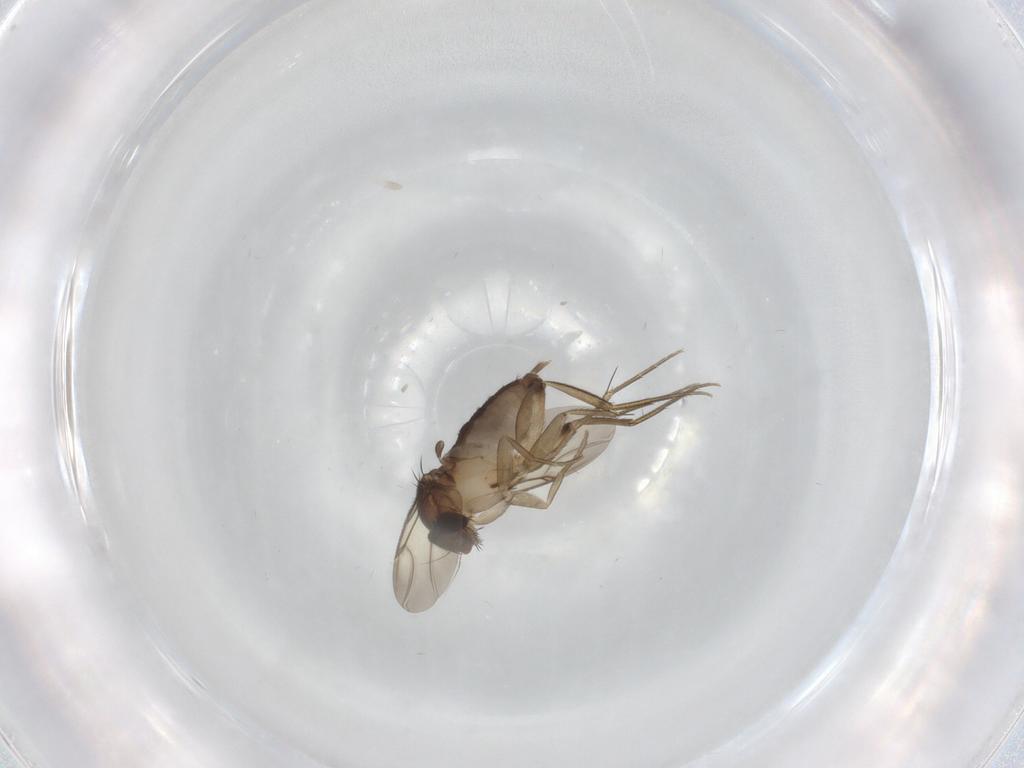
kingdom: Animalia
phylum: Arthropoda
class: Insecta
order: Diptera
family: Phoridae
